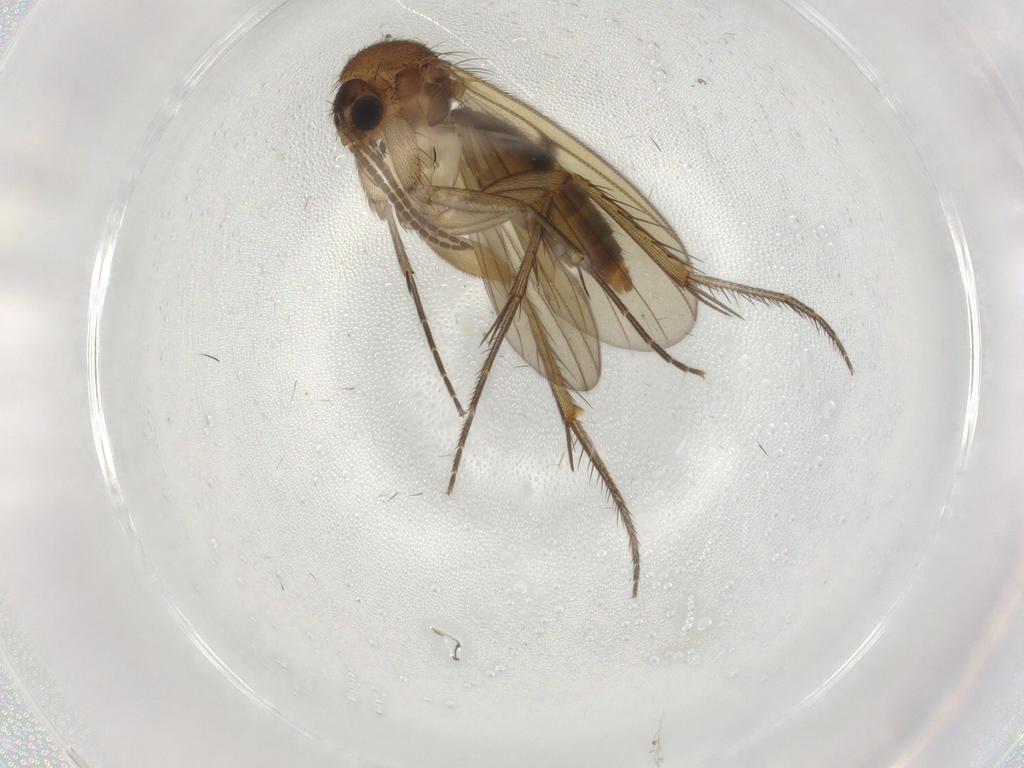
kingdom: Animalia
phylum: Arthropoda
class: Insecta
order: Diptera
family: Mycetophilidae
